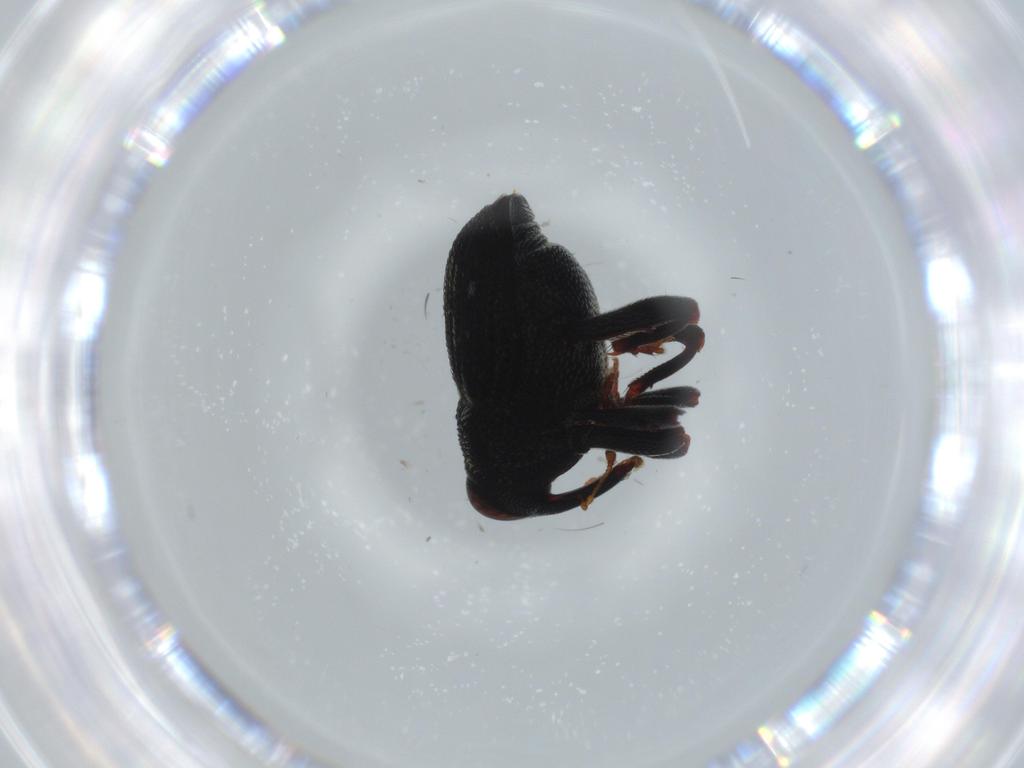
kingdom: Animalia
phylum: Arthropoda
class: Insecta
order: Coleoptera
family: Curculionidae
